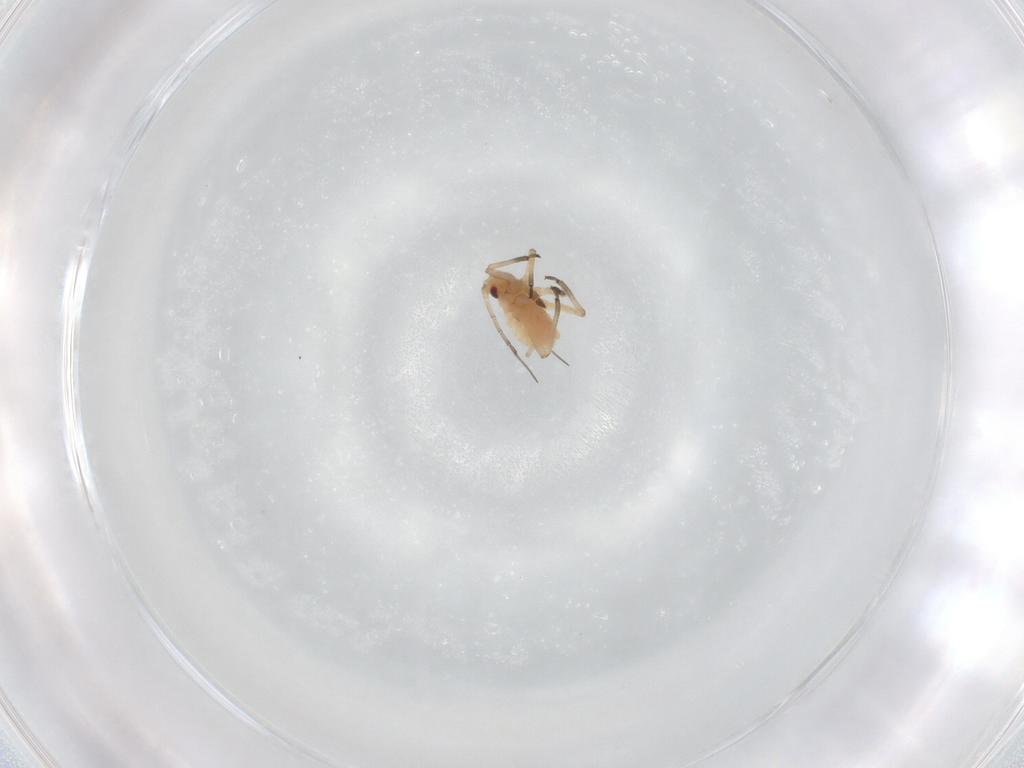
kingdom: Animalia
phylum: Arthropoda
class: Insecta
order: Hemiptera
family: Aphididae
